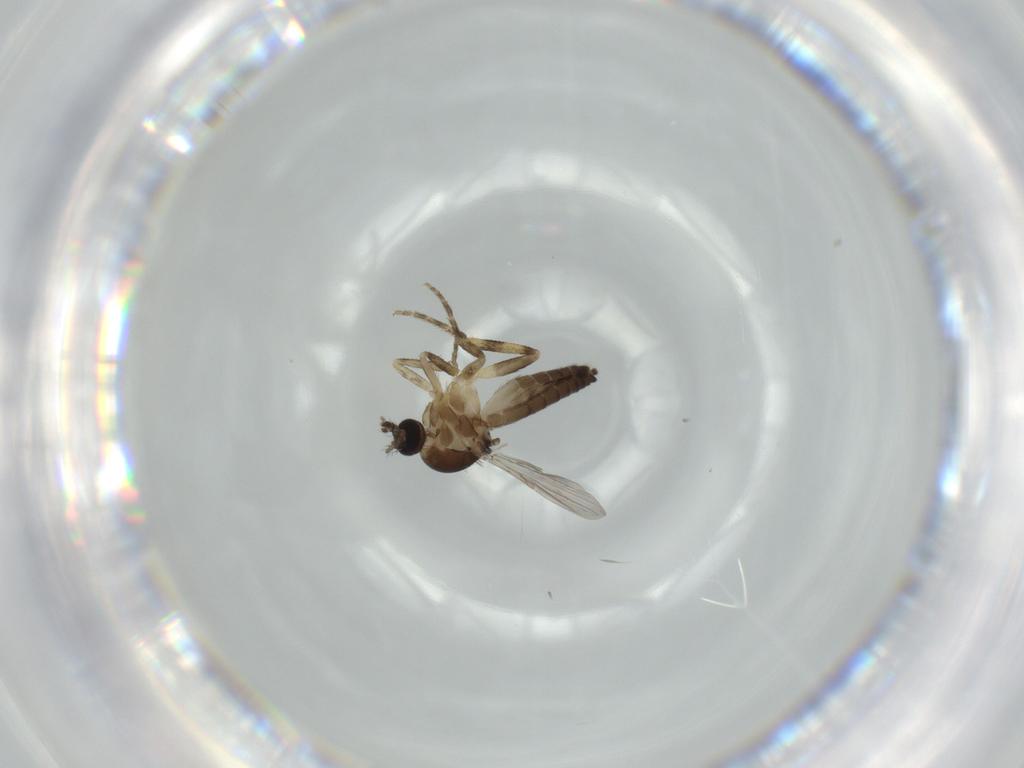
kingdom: Animalia
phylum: Arthropoda
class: Insecta
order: Diptera
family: Ceratopogonidae
